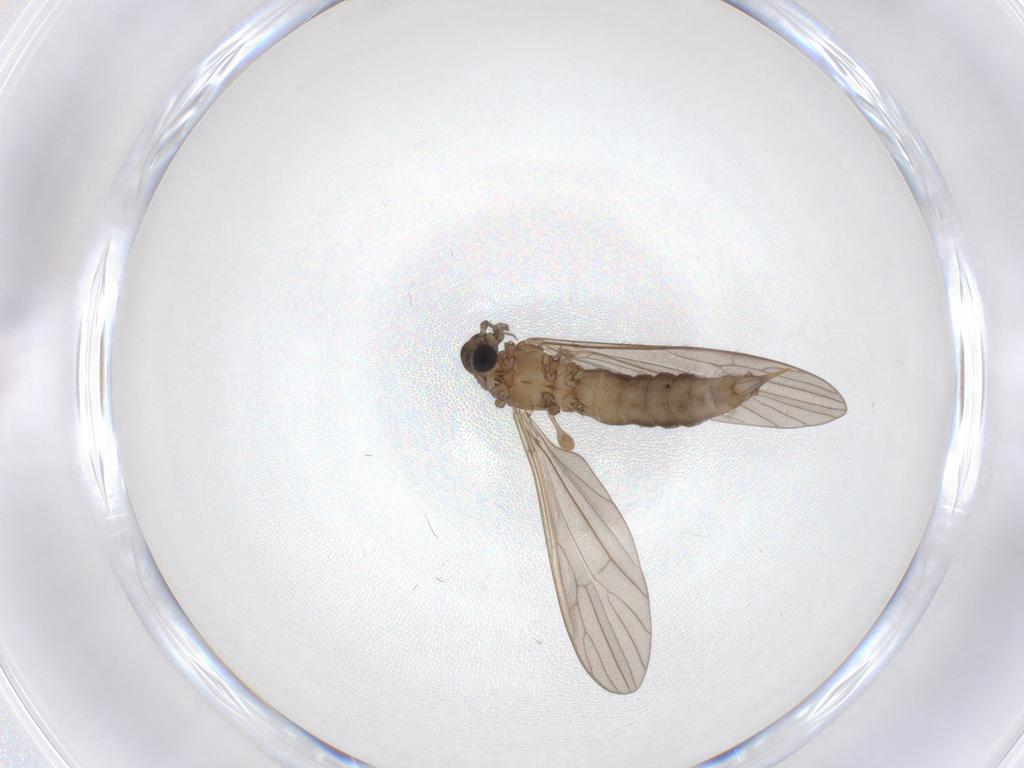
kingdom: Animalia
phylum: Arthropoda
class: Insecta
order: Diptera
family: Limoniidae
